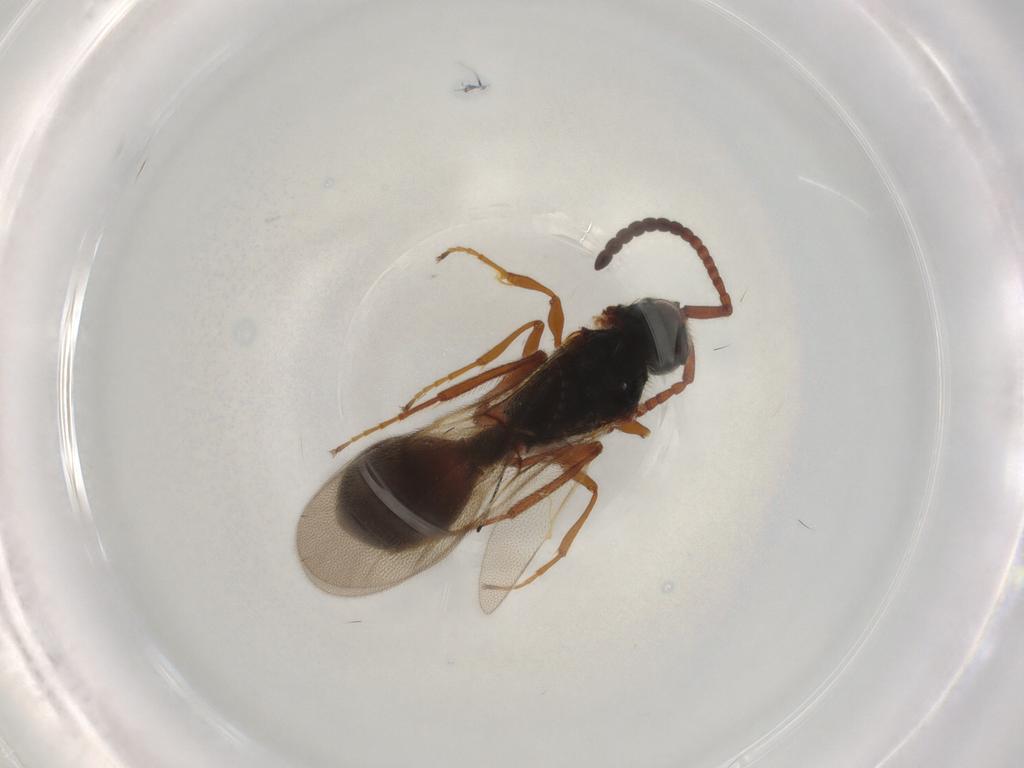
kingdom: Animalia
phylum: Arthropoda
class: Insecta
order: Hymenoptera
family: Diapriidae
